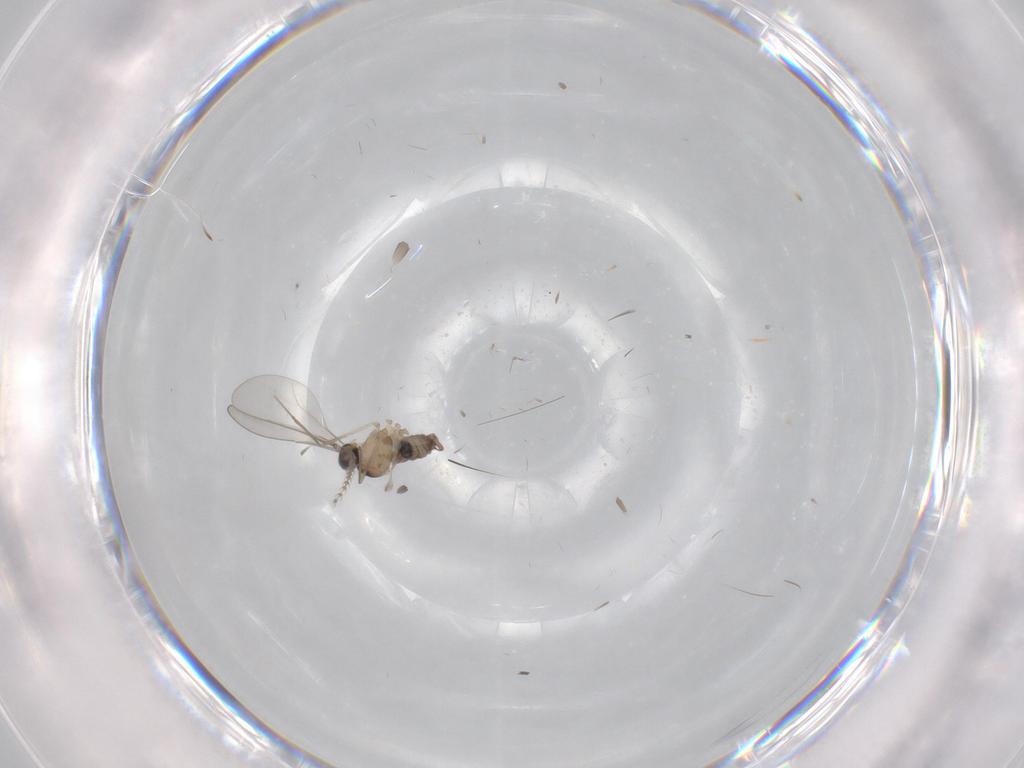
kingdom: Animalia
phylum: Arthropoda
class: Insecta
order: Diptera
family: Cecidomyiidae
